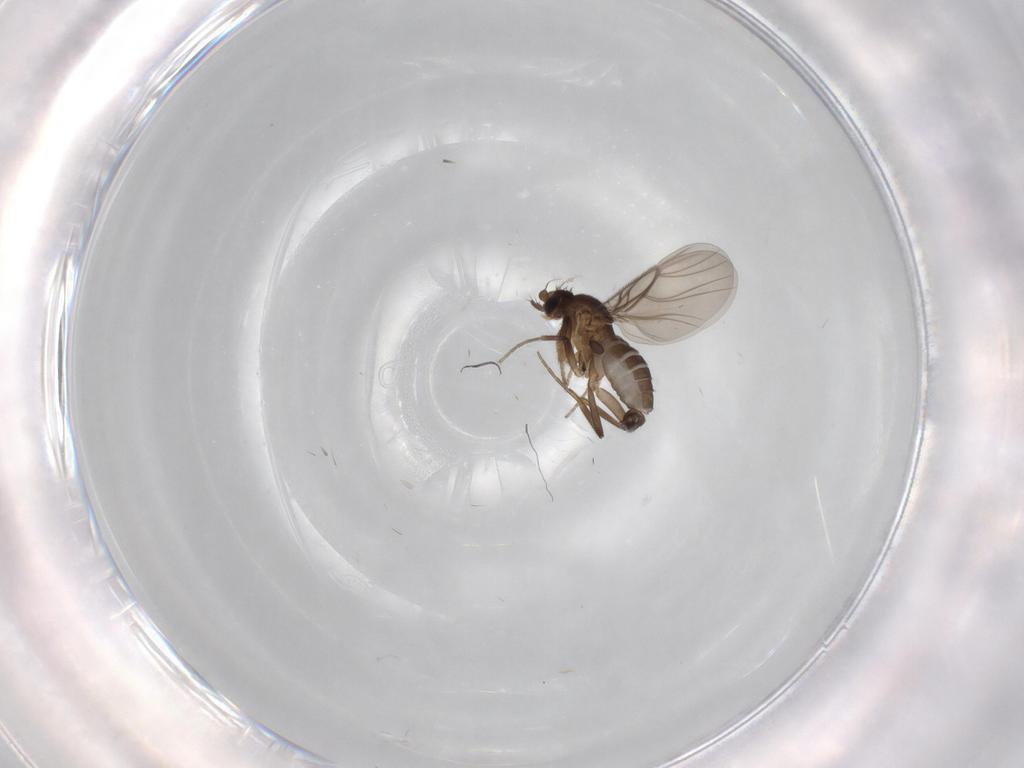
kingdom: Animalia
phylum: Arthropoda
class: Insecta
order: Diptera
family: Phoridae
